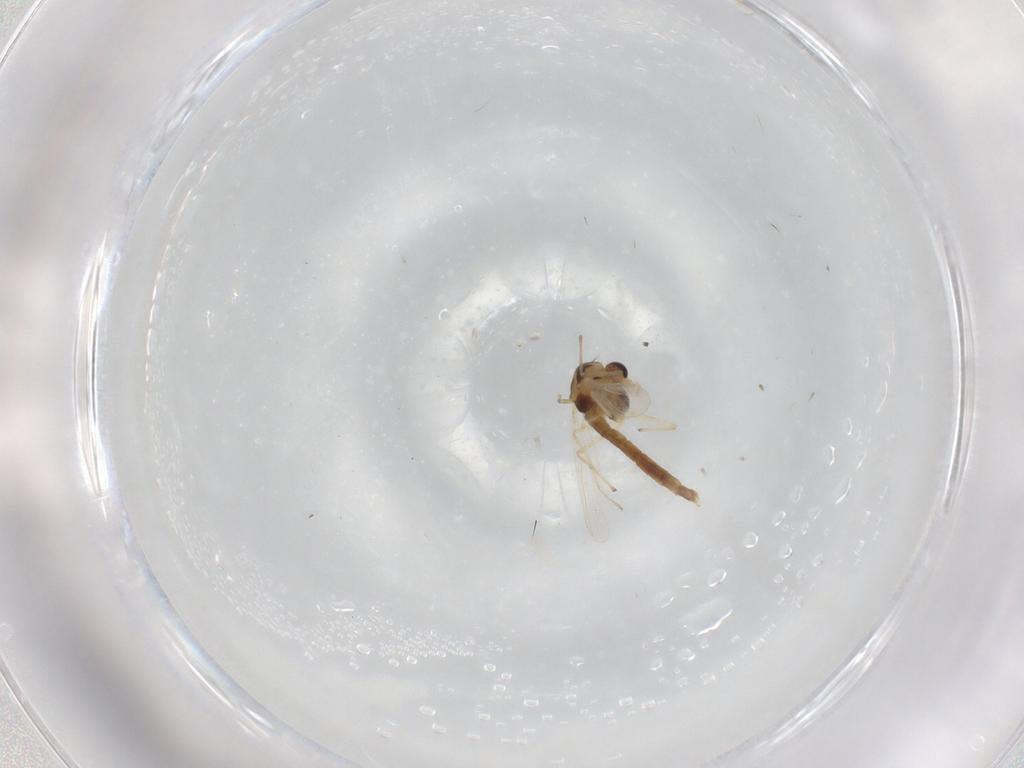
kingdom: Animalia
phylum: Arthropoda
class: Insecta
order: Diptera
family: Chironomidae
